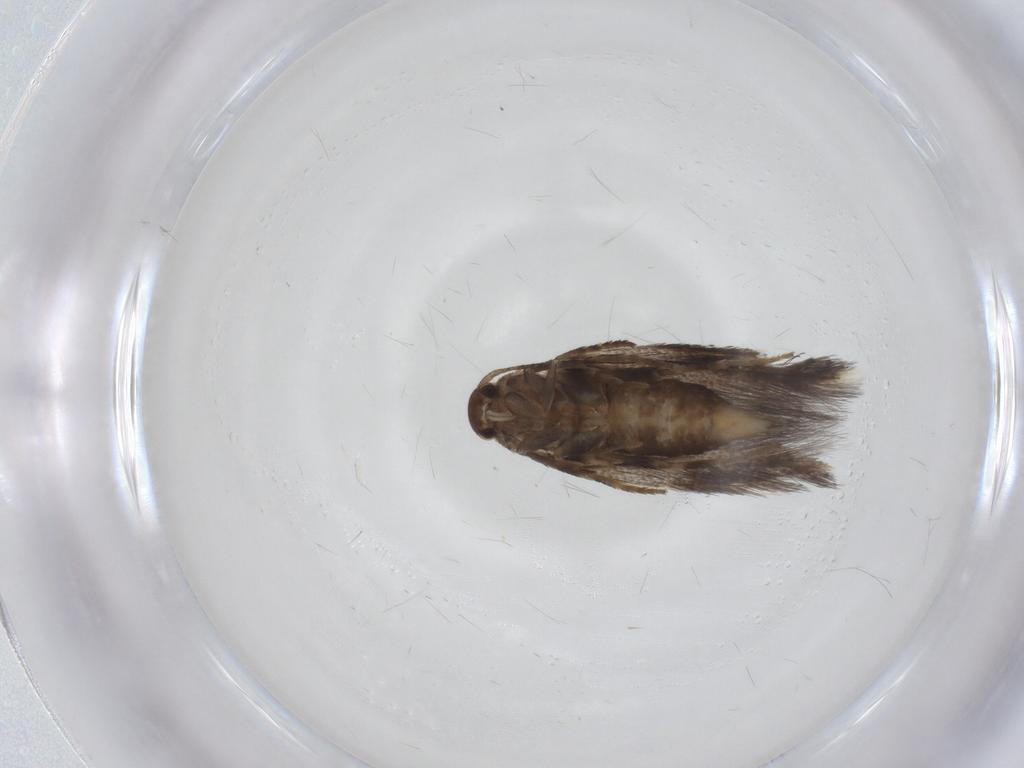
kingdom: Animalia
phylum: Arthropoda
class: Insecta
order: Lepidoptera
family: Elachistidae
